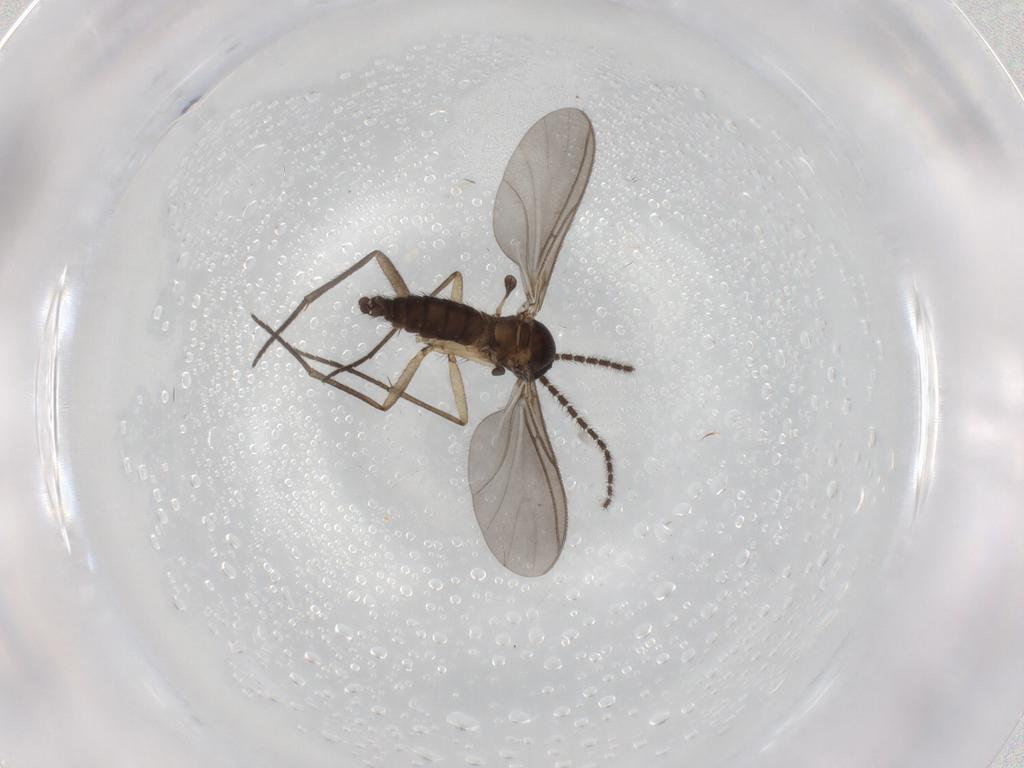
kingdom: Animalia
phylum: Arthropoda
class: Insecta
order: Diptera
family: Sciaridae
